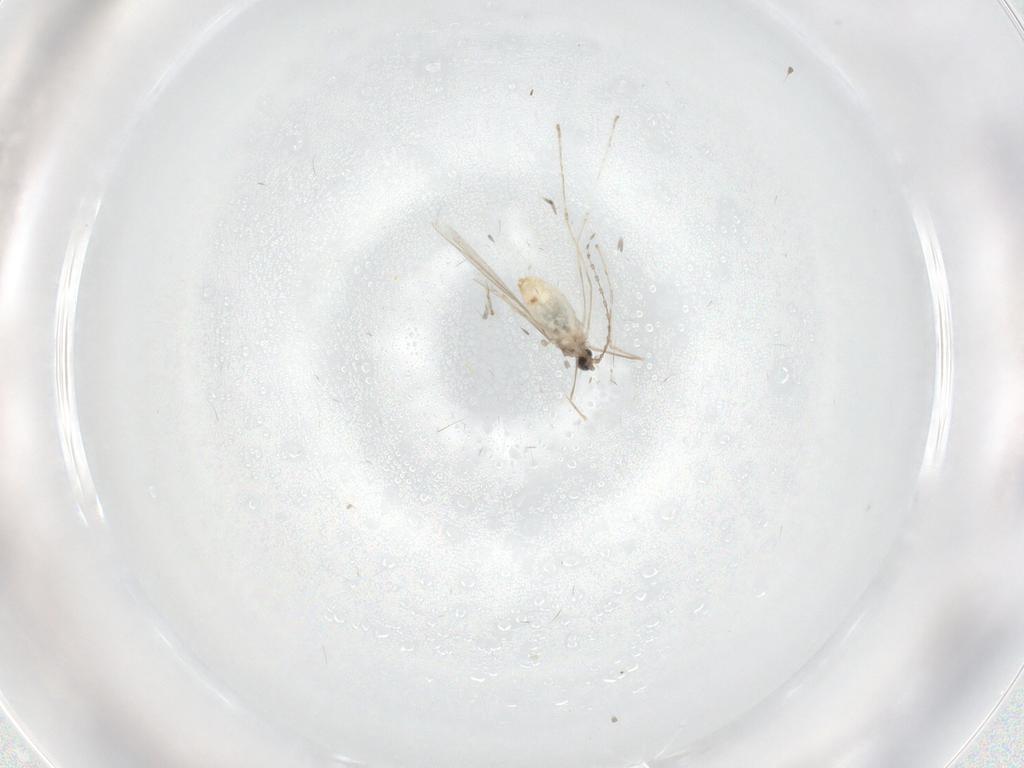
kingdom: Animalia
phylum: Arthropoda
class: Insecta
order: Diptera
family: Cecidomyiidae
